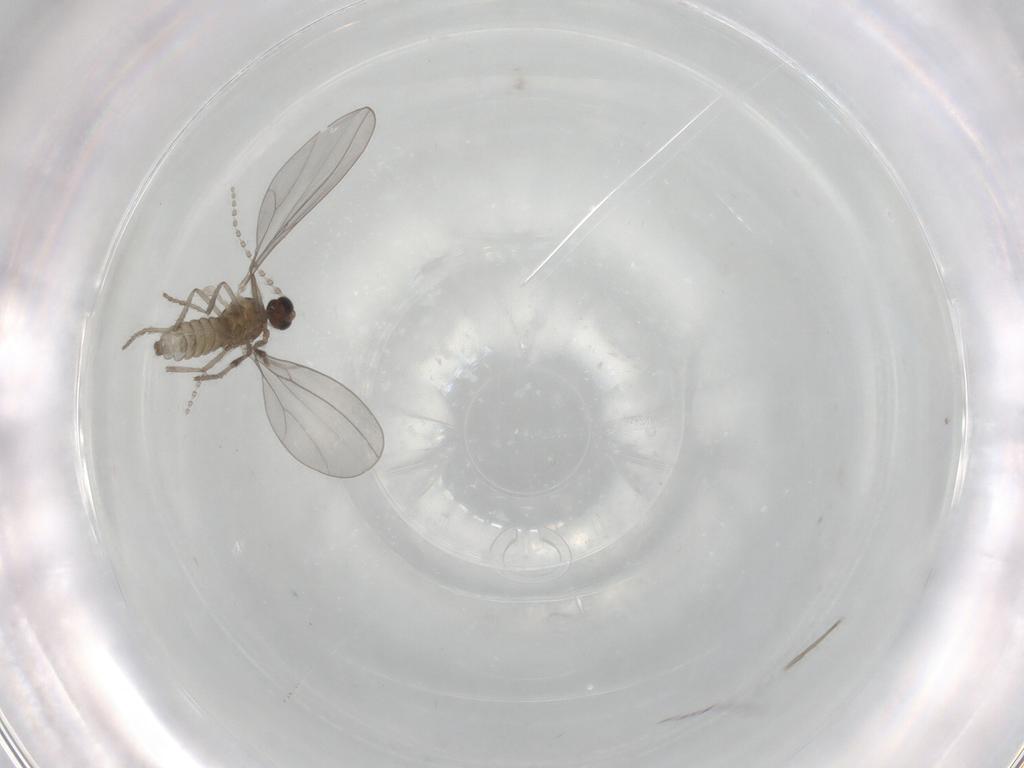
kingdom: Animalia
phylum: Arthropoda
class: Insecta
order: Diptera
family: Cecidomyiidae
